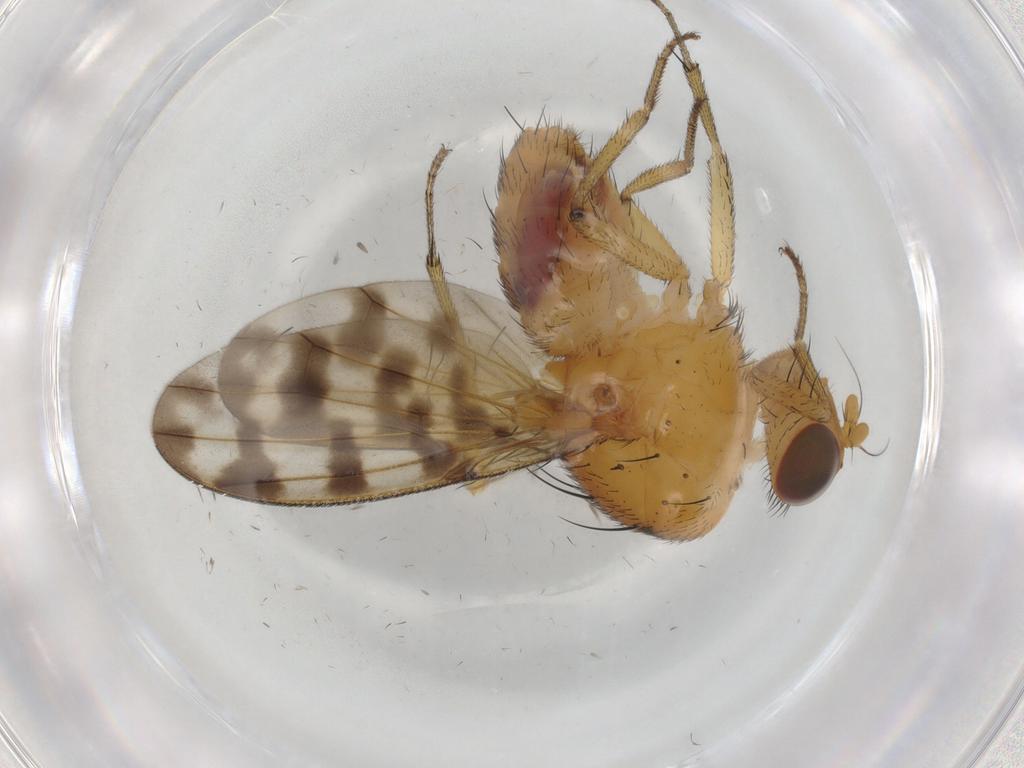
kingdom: Animalia
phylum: Arthropoda
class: Insecta
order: Diptera
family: Psychodidae
